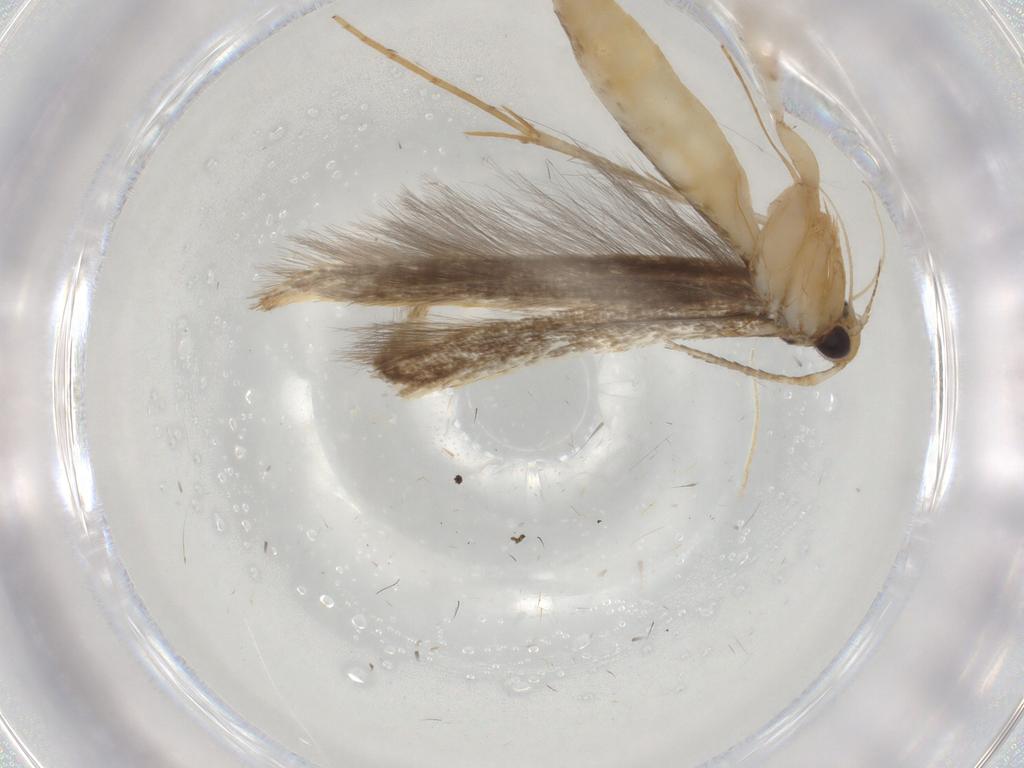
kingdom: Animalia
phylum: Arthropoda
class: Insecta
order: Lepidoptera
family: Pterolonchidae
